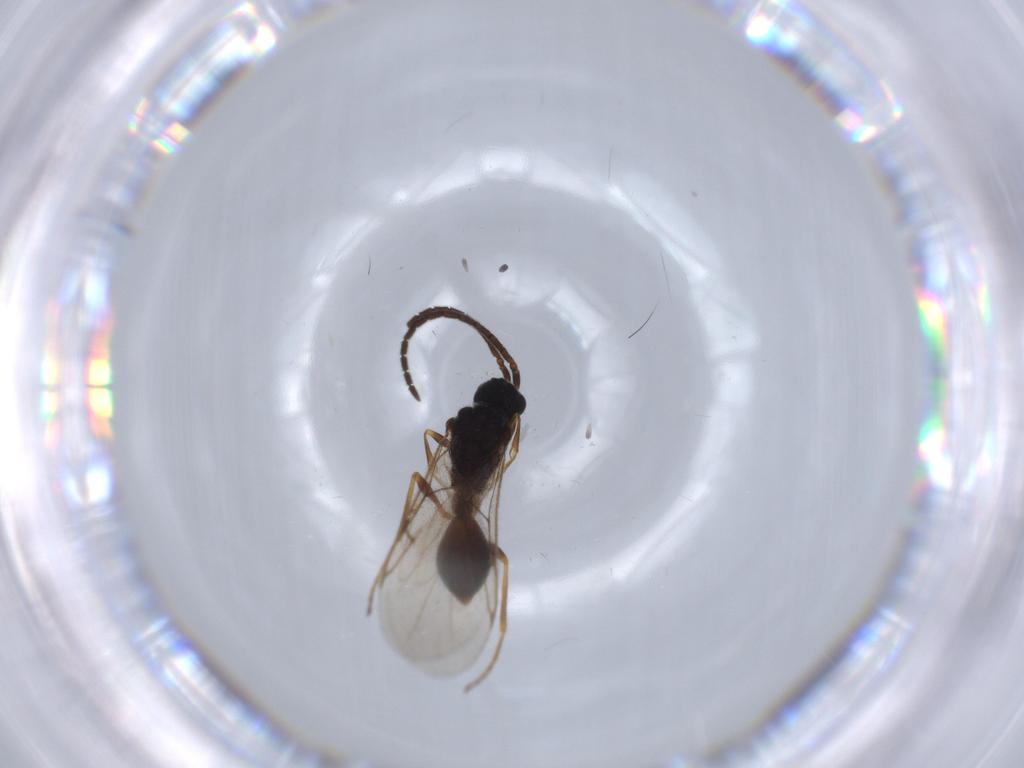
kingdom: Animalia
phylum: Arthropoda
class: Insecta
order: Hymenoptera
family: Diapriidae
